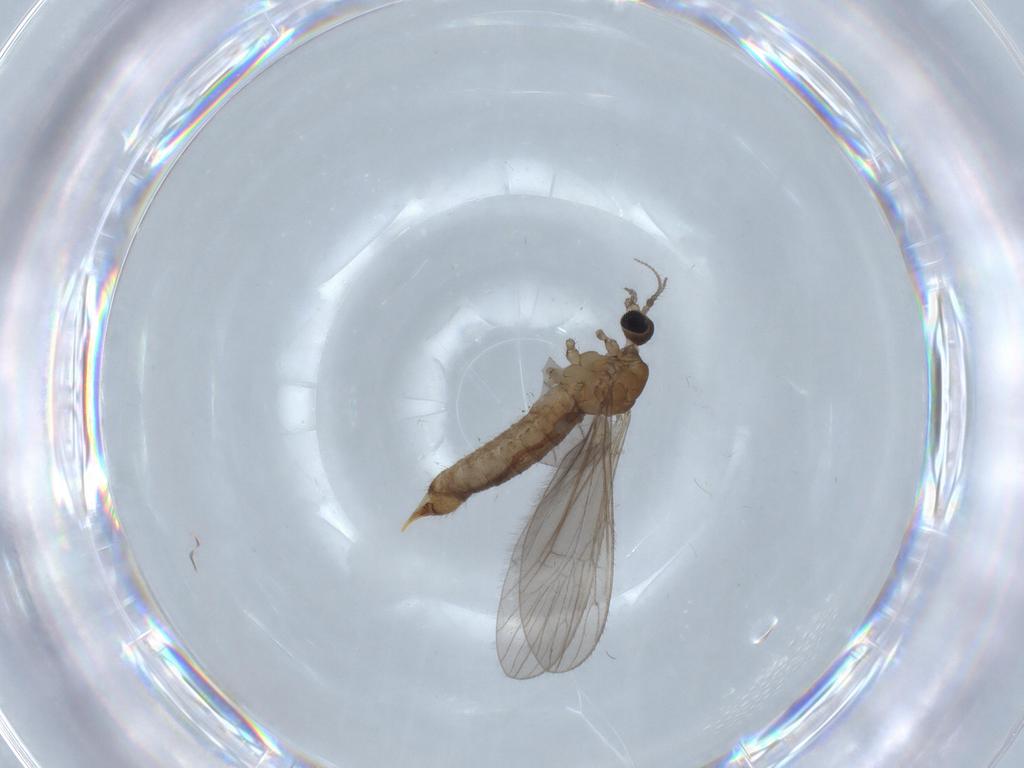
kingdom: Animalia
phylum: Arthropoda
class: Insecta
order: Diptera
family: Limoniidae
